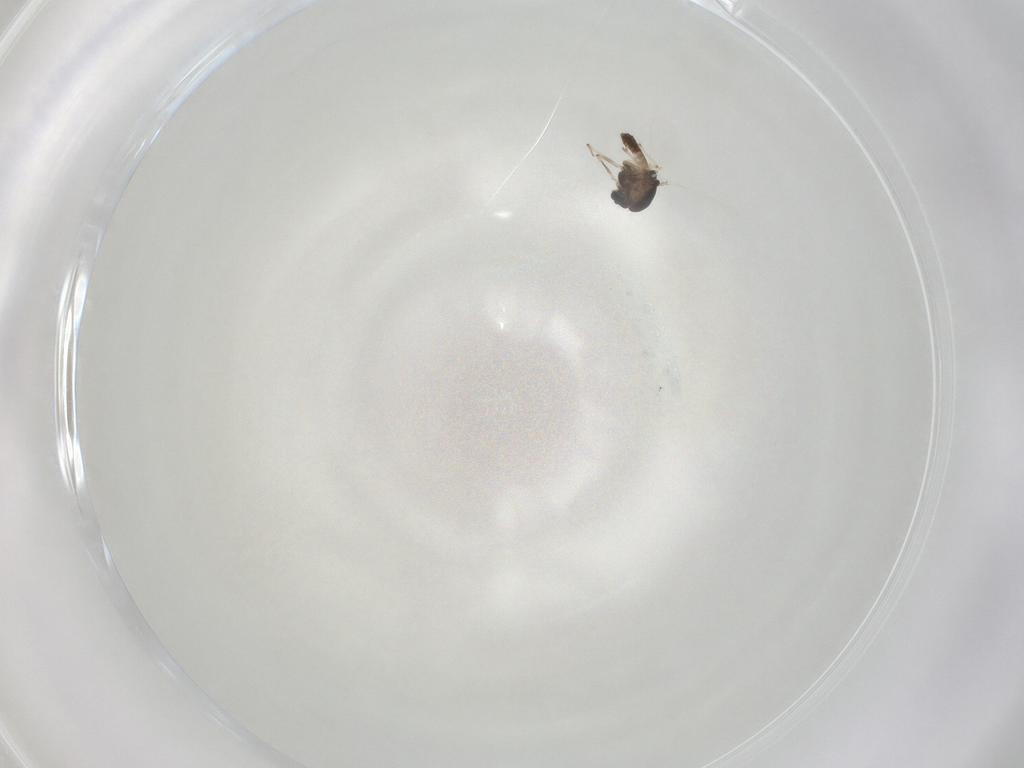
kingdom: Animalia
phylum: Arthropoda
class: Insecta
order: Diptera
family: Chironomidae
